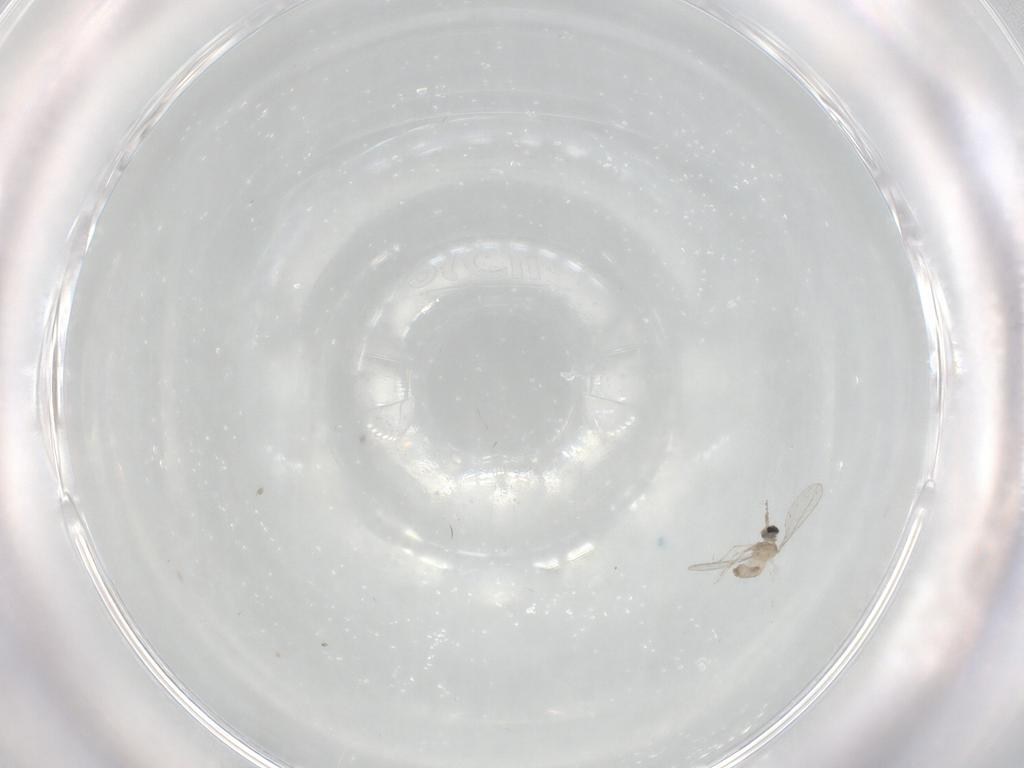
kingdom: Animalia
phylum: Arthropoda
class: Insecta
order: Diptera
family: Cecidomyiidae
